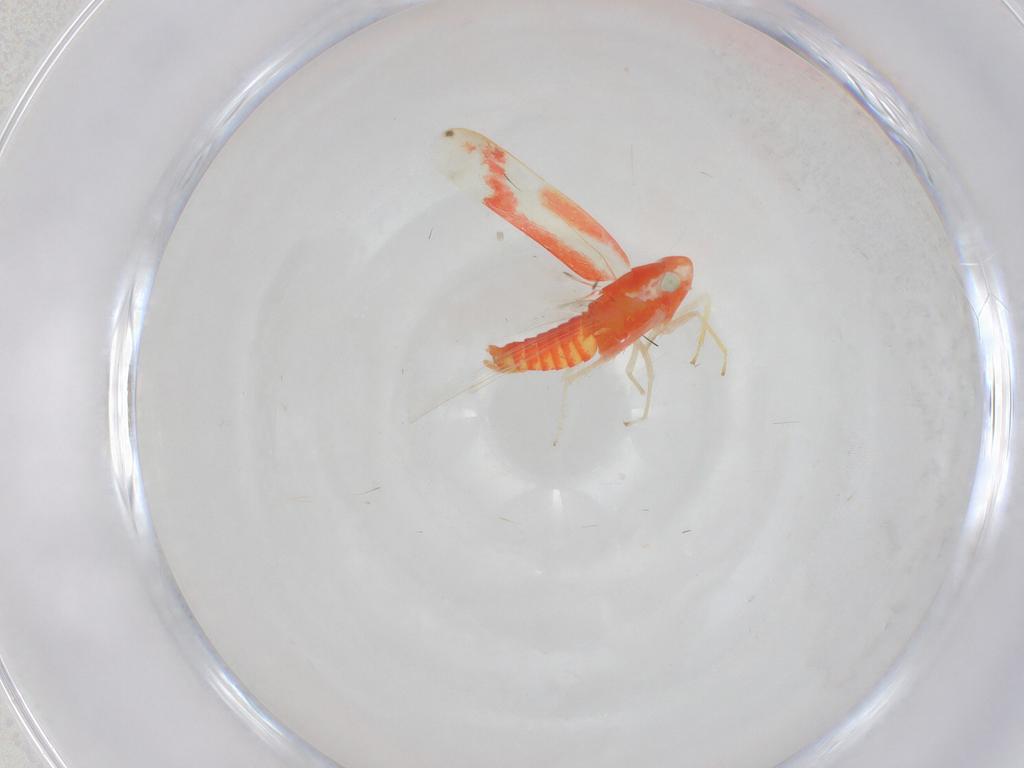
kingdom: Animalia
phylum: Arthropoda
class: Insecta
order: Hemiptera
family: Cicadellidae
